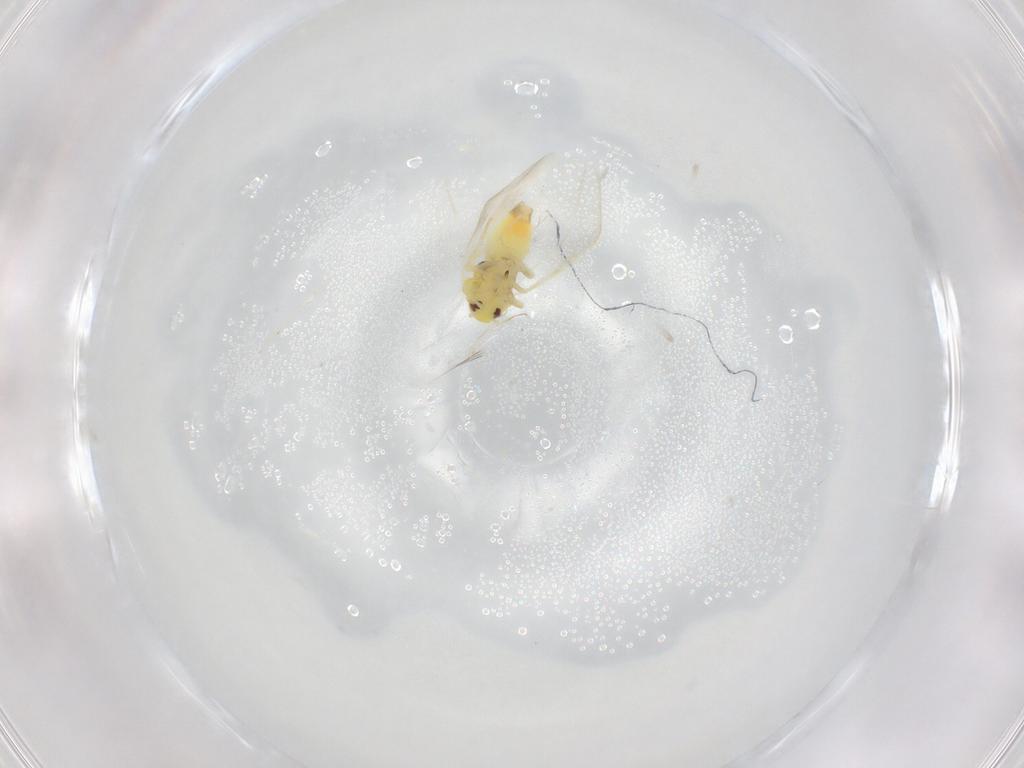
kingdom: Animalia
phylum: Arthropoda
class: Insecta
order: Hemiptera
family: Aleyrodidae
